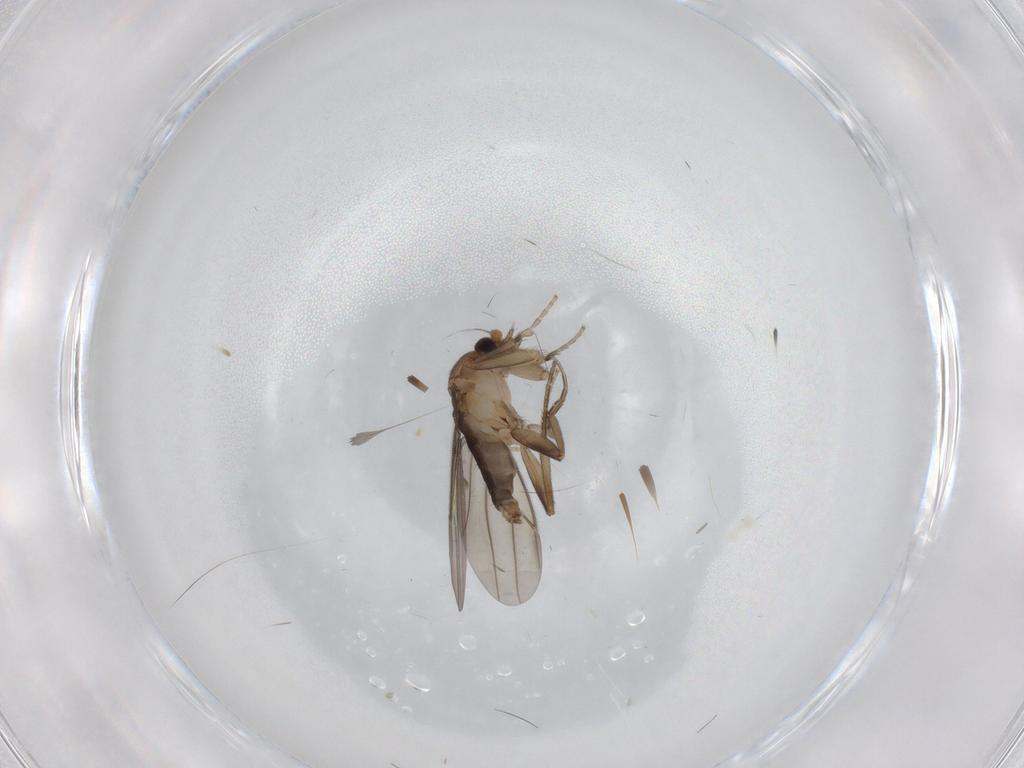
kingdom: Animalia
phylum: Arthropoda
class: Insecta
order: Diptera
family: Phoridae
